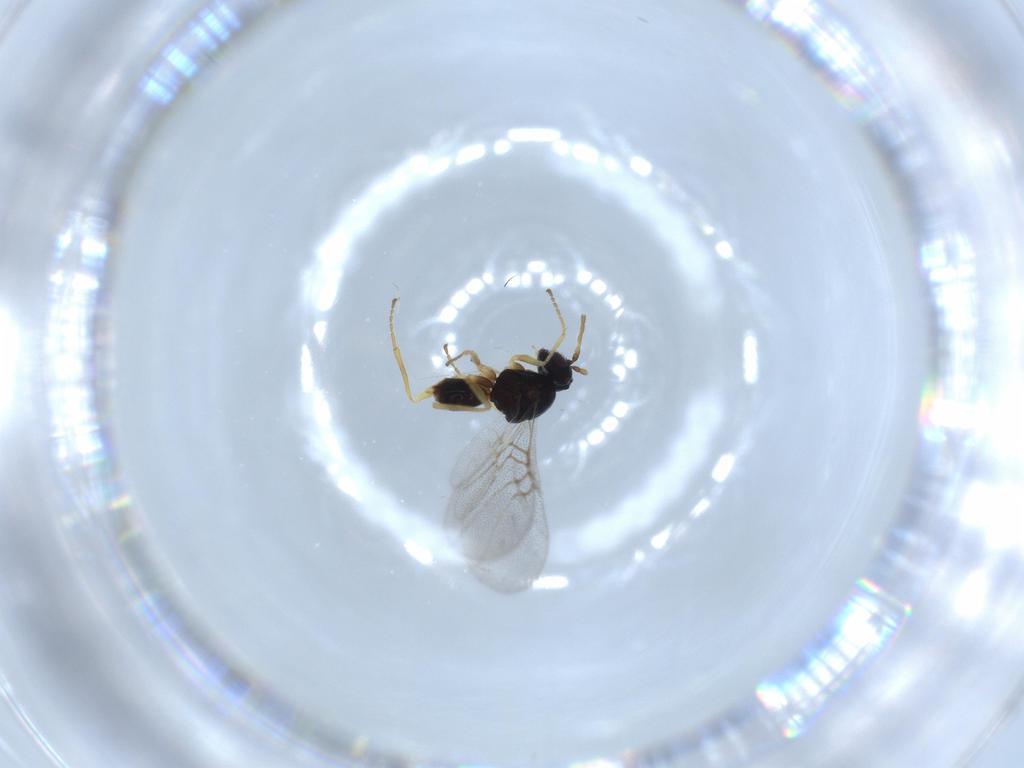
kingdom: Animalia
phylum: Arthropoda
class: Insecta
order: Hymenoptera
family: Cynipidae
